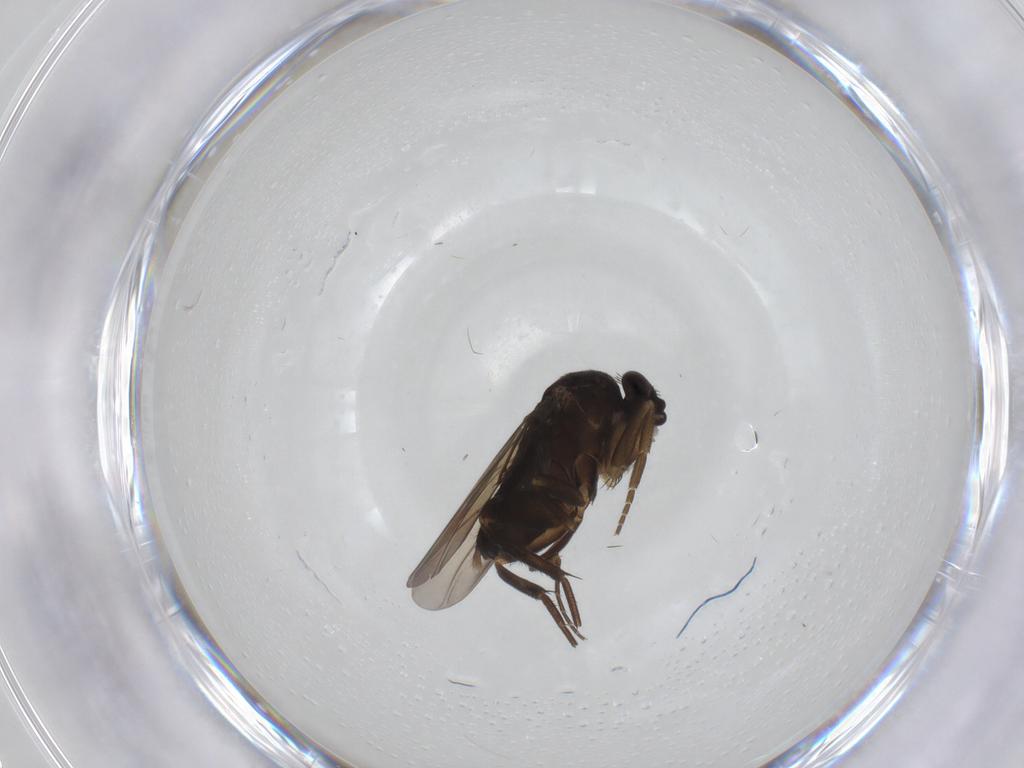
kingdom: Animalia
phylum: Arthropoda
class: Insecta
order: Diptera
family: Phoridae
